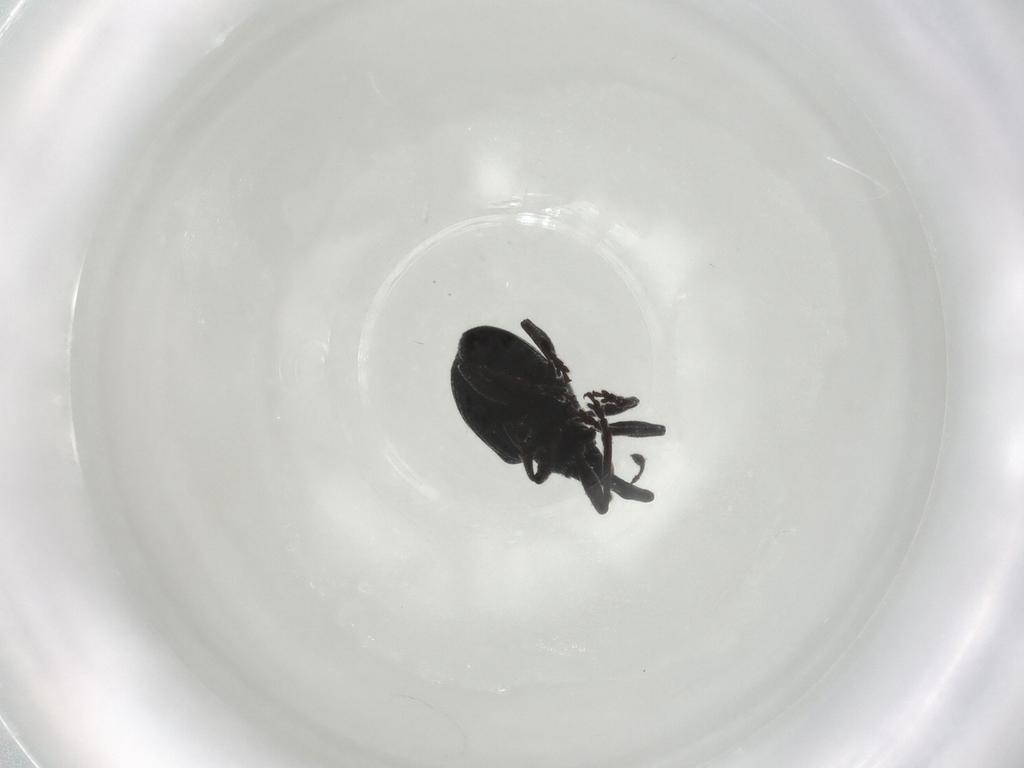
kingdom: Animalia
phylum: Arthropoda
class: Insecta
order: Coleoptera
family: Brentidae
